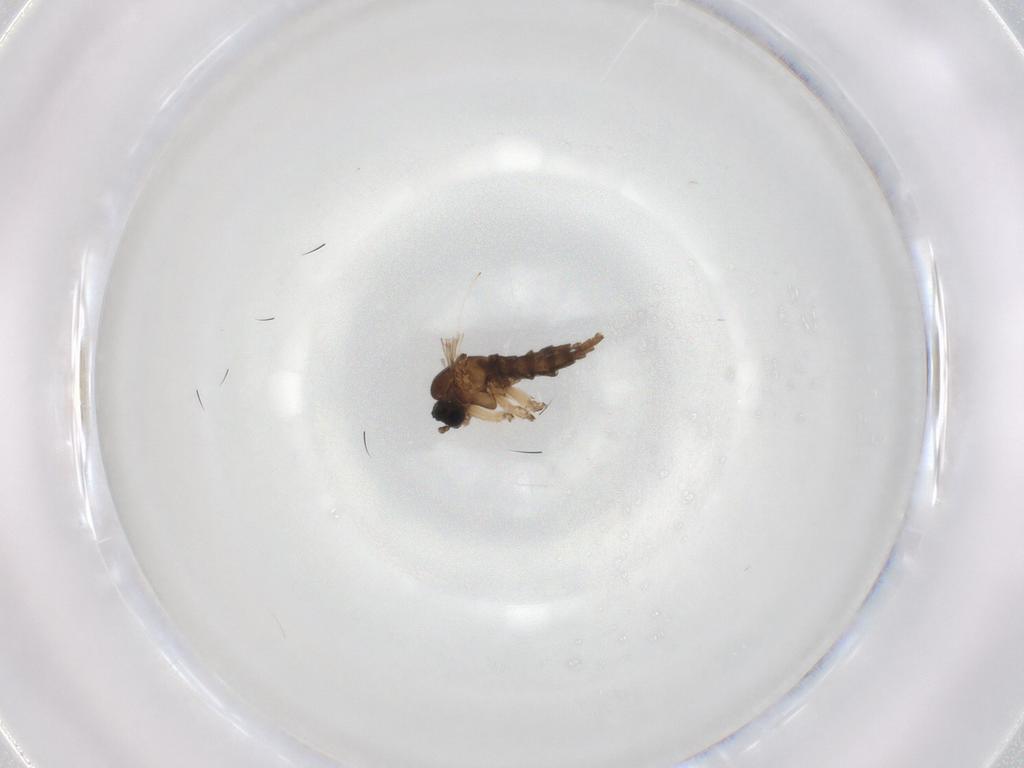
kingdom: Animalia
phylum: Arthropoda
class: Insecta
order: Diptera
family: Sciaridae
